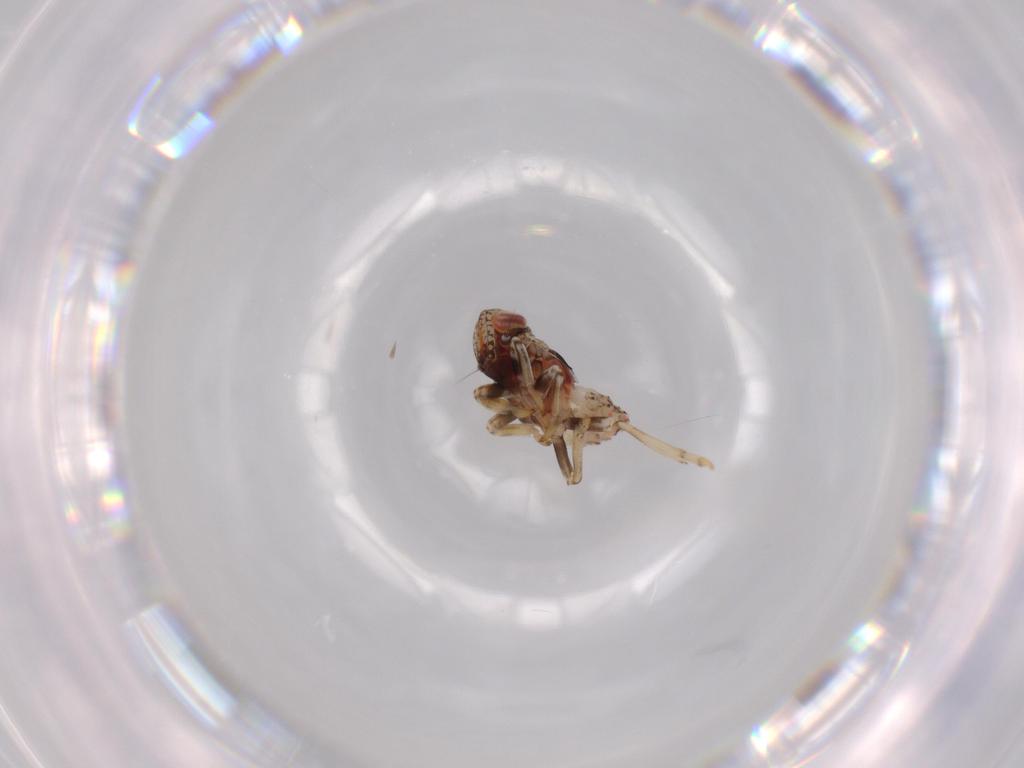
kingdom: Animalia
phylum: Arthropoda
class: Insecta
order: Hemiptera
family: Issidae
